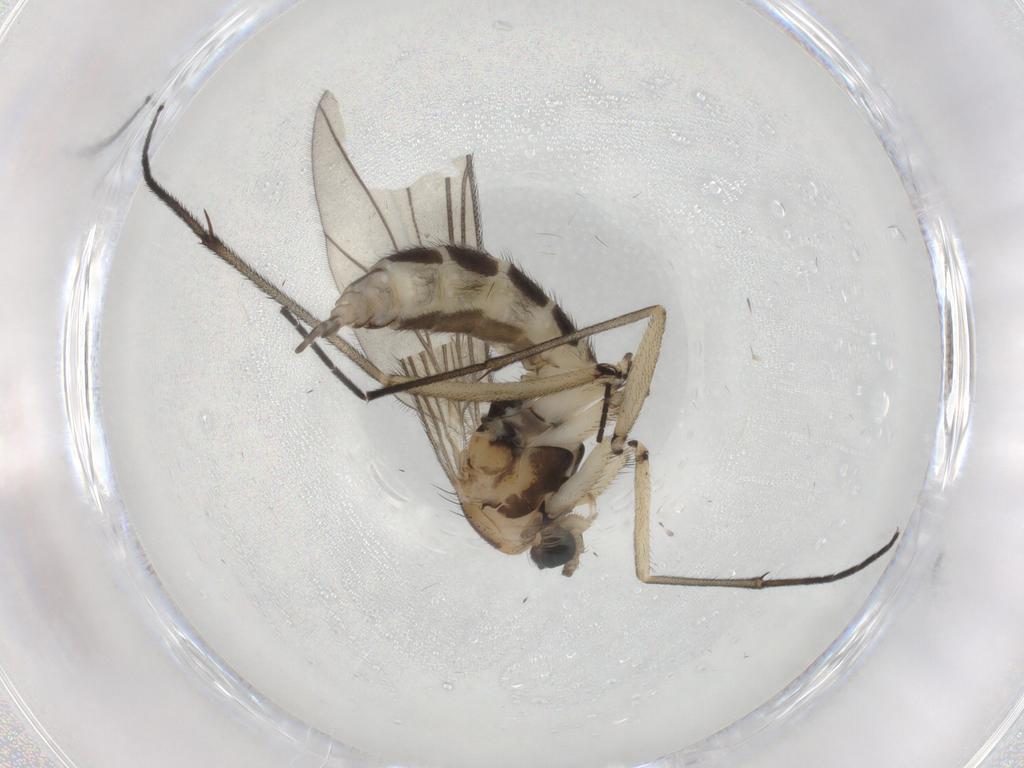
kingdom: Animalia
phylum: Arthropoda
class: Insecta
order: Diptera
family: Sciaridae
